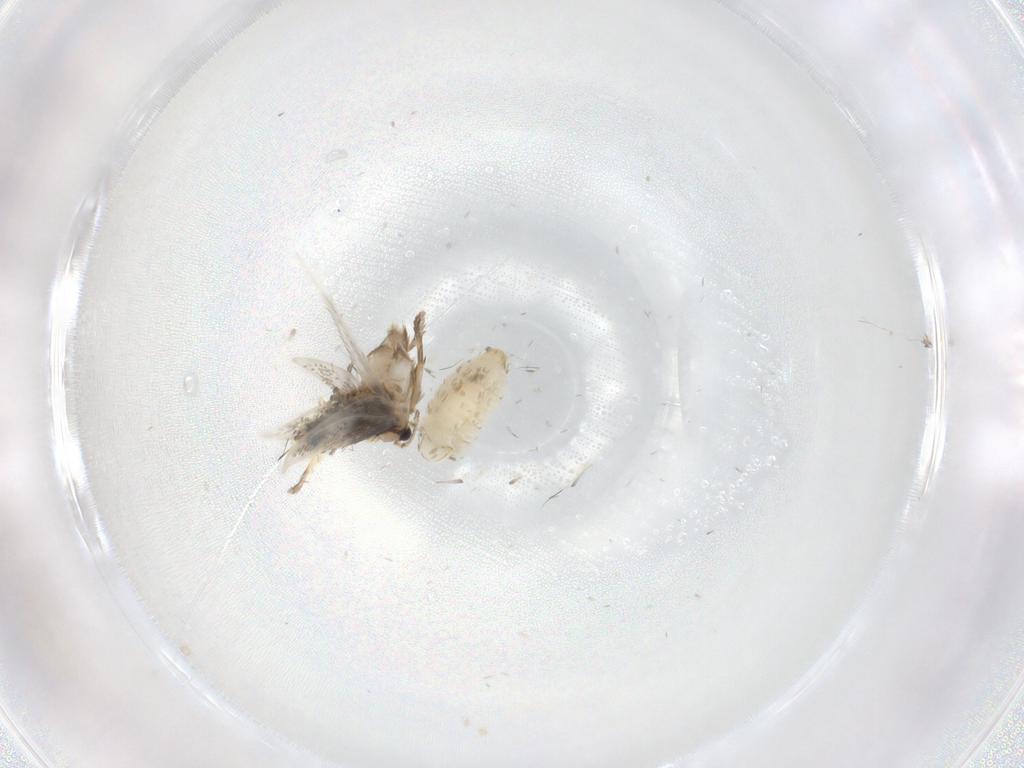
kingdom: Animalia
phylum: Arthropoda
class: Insecta
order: Lepidoptera
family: Nepticulidae
